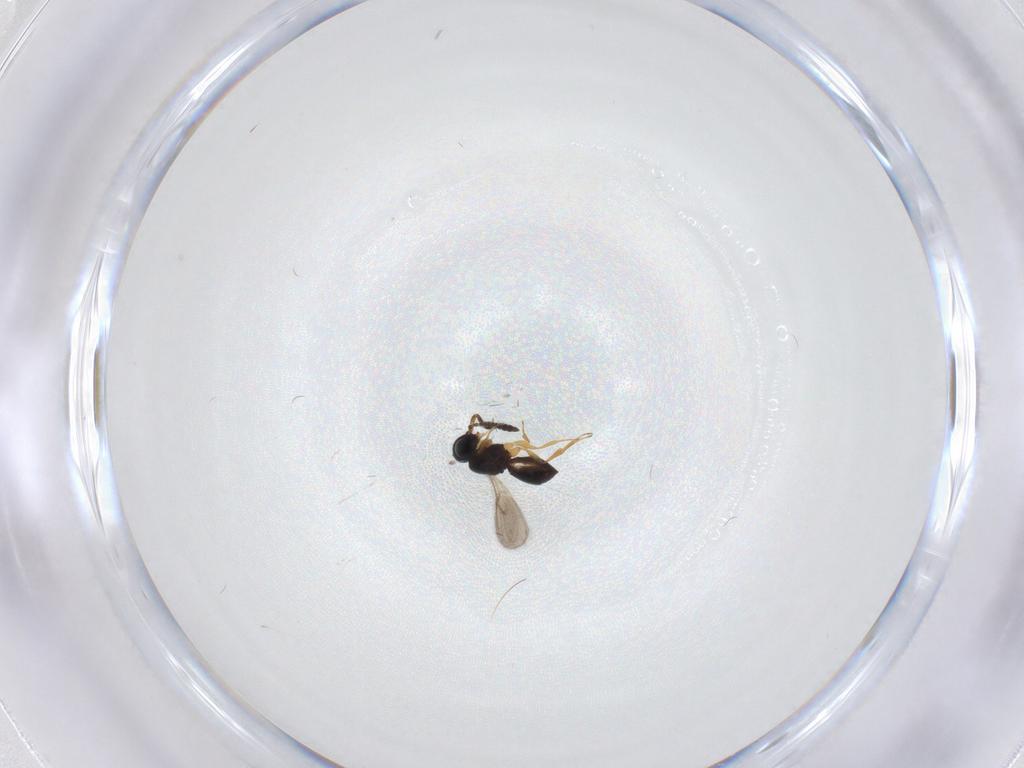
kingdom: Animalia
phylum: Arthropoda
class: Insecta
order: Hymenoptera
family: Scelionidae
